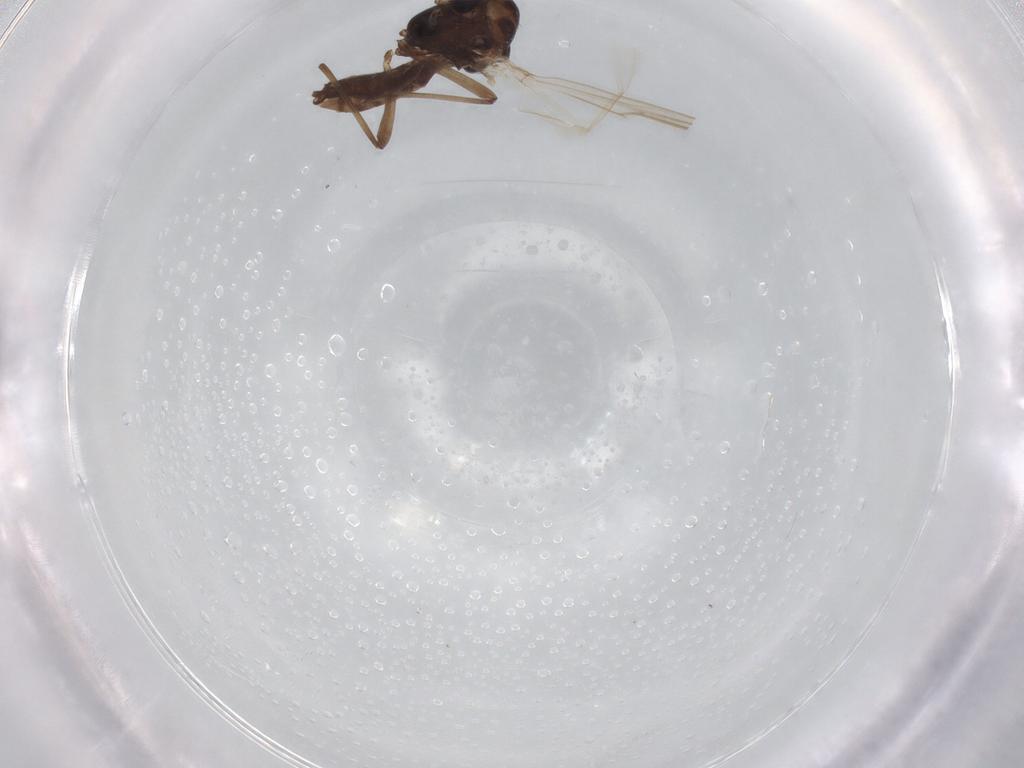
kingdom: Animalia
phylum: Arthropoda
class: Insecta
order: Diptera
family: Chironomidae
